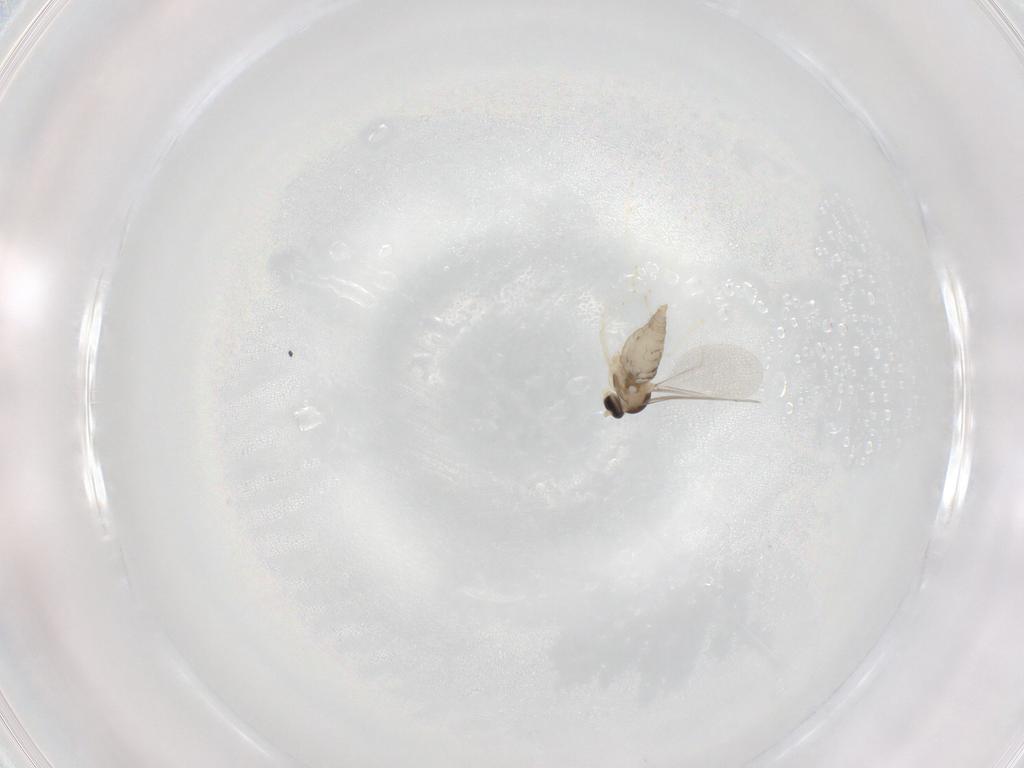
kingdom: Animalia
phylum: Arthropoda
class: Insecta
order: Diptera
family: Cecidomyiidae
